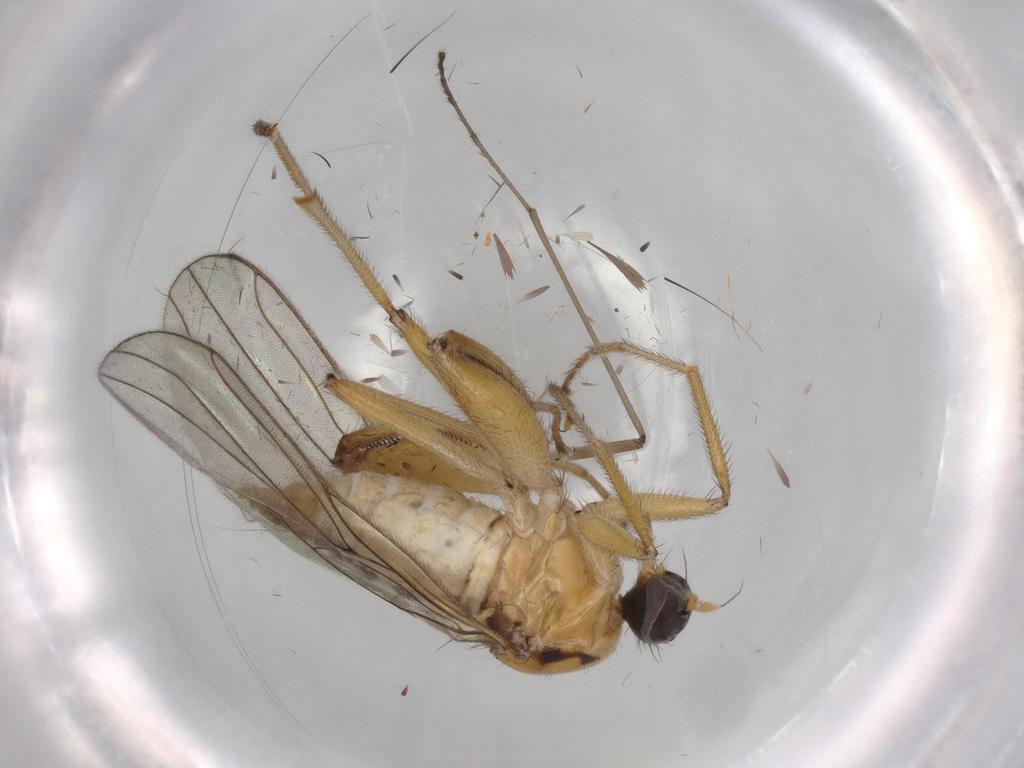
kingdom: Animalia
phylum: Arthropoda
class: Insecta
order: Diptera
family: Limoniidae
